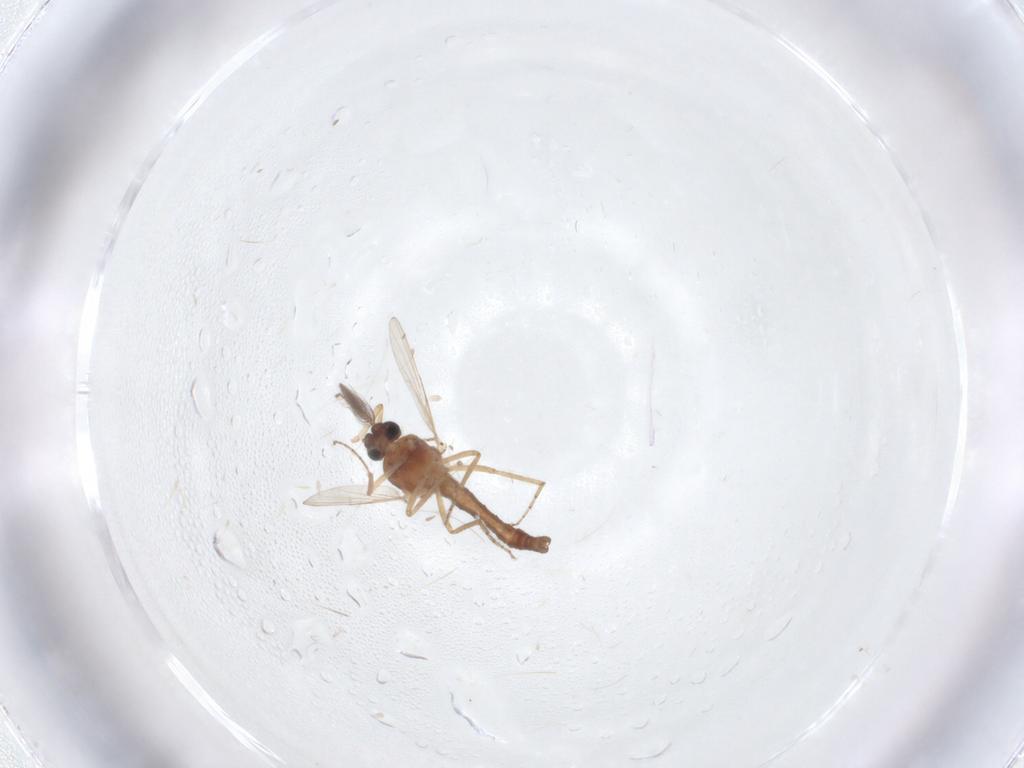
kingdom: Animalia
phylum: Arthropoda
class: Insecta
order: Diptera
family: Ceratopogonidae
